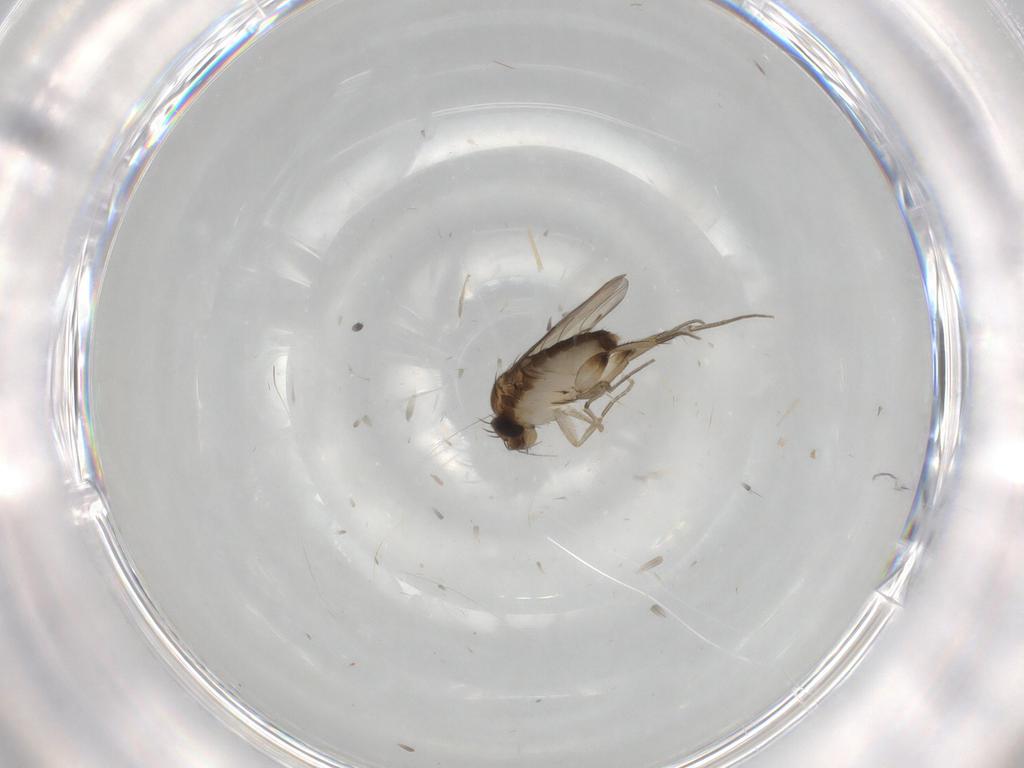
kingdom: Animalia
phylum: Arthropoda
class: Insecta
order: Diptera
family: Phoridae
